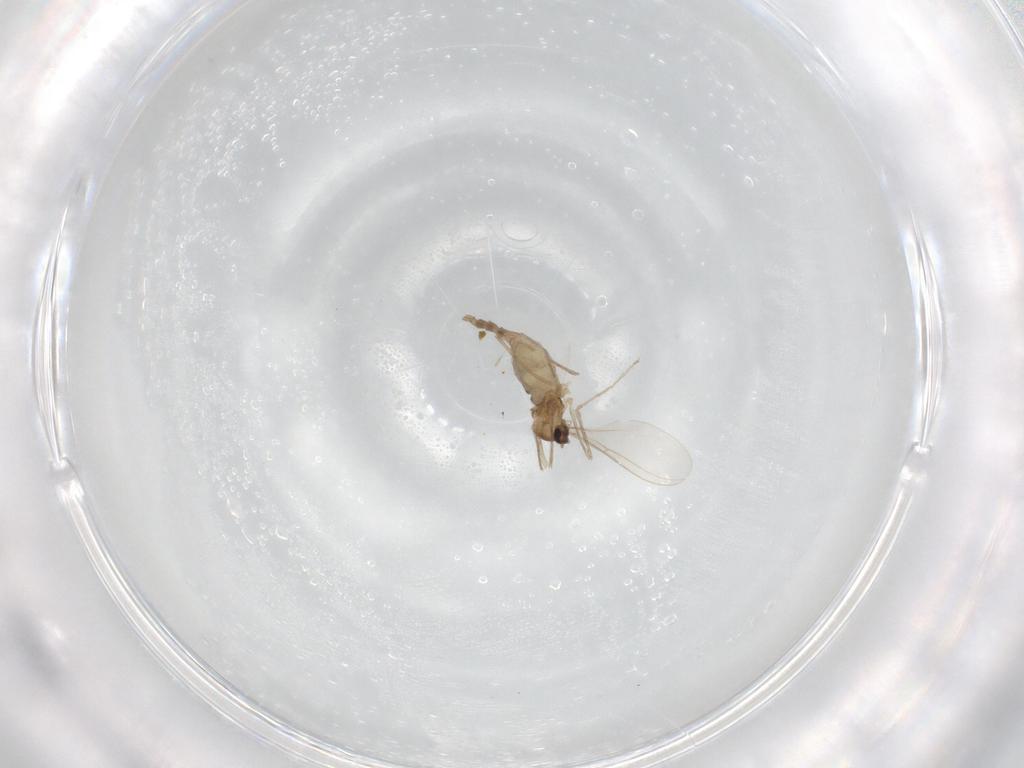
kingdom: Animalia
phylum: Arthropoda
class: Insecta
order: Diptera
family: Cecidomyiidae
